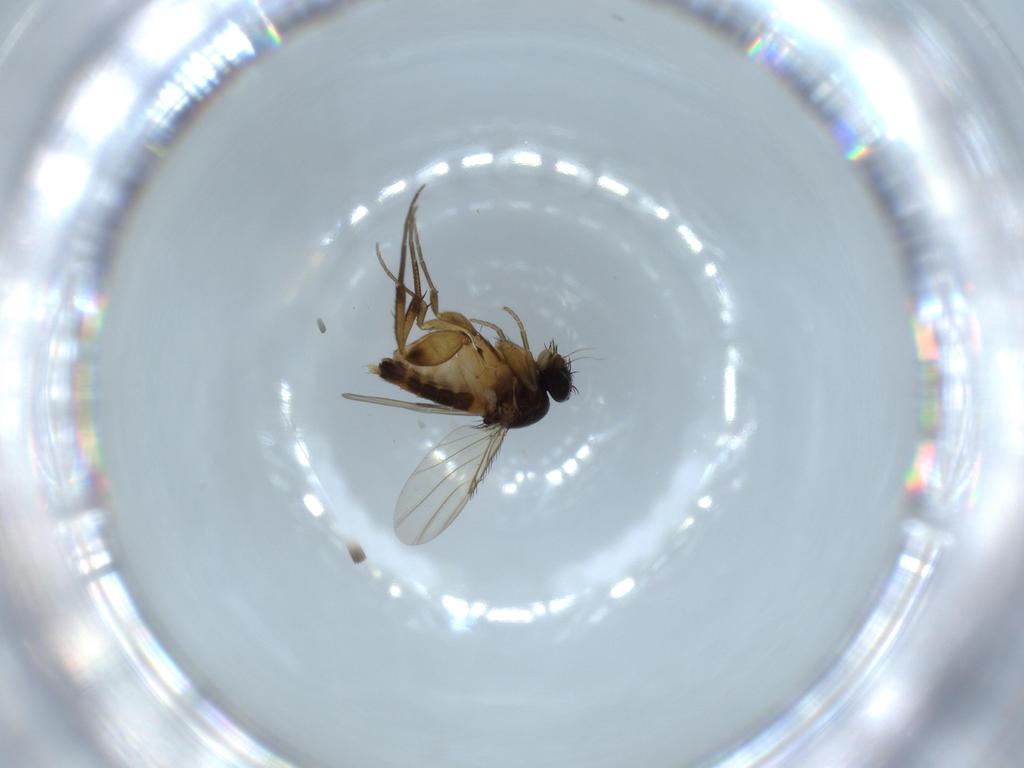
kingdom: Animalia
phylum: Arthropoda
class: Insecta
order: Diptera
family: Phoridae
